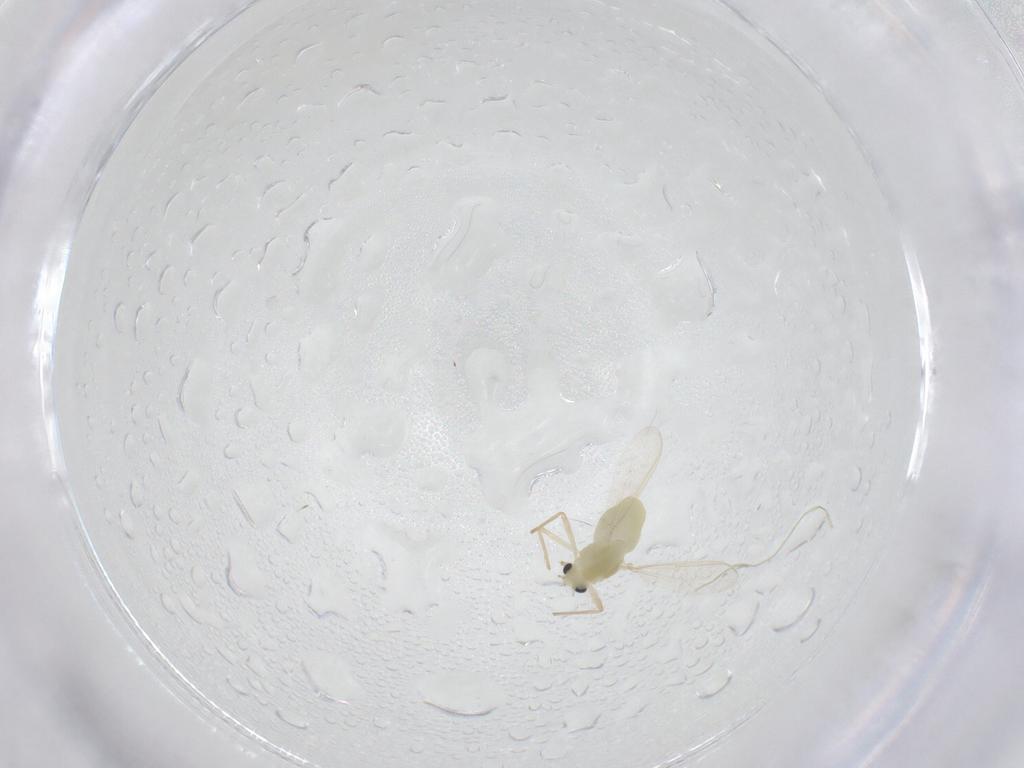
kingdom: Animalia
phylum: Arthropoda
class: Insecta
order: Diptera
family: Chironomidae
